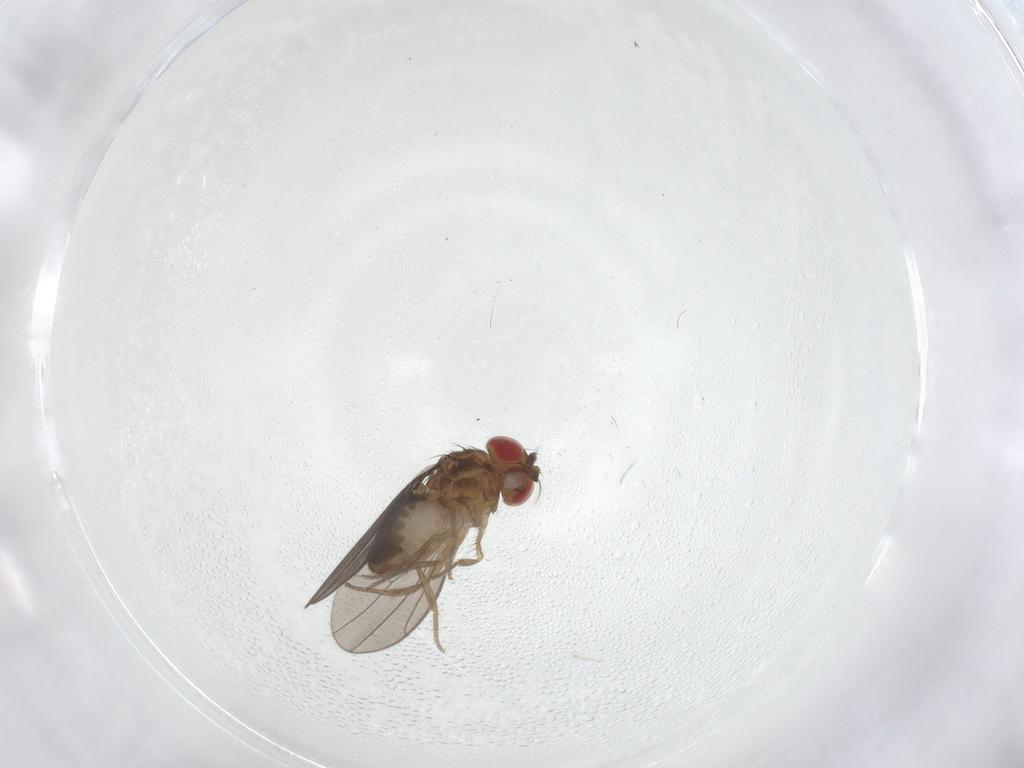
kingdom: Animalia
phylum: Arthropoda
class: Insecta
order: Diptera
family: Drosophilidae
